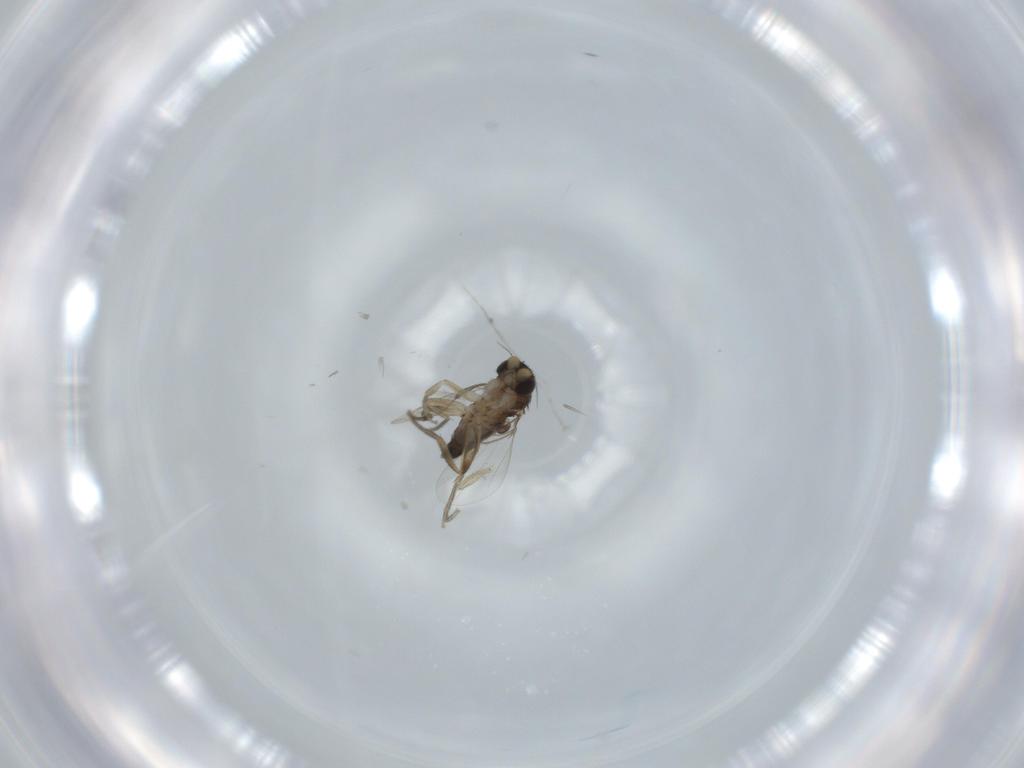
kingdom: Animalia
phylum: Arthropoda
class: Insecta
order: Diptera
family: Phoridae
